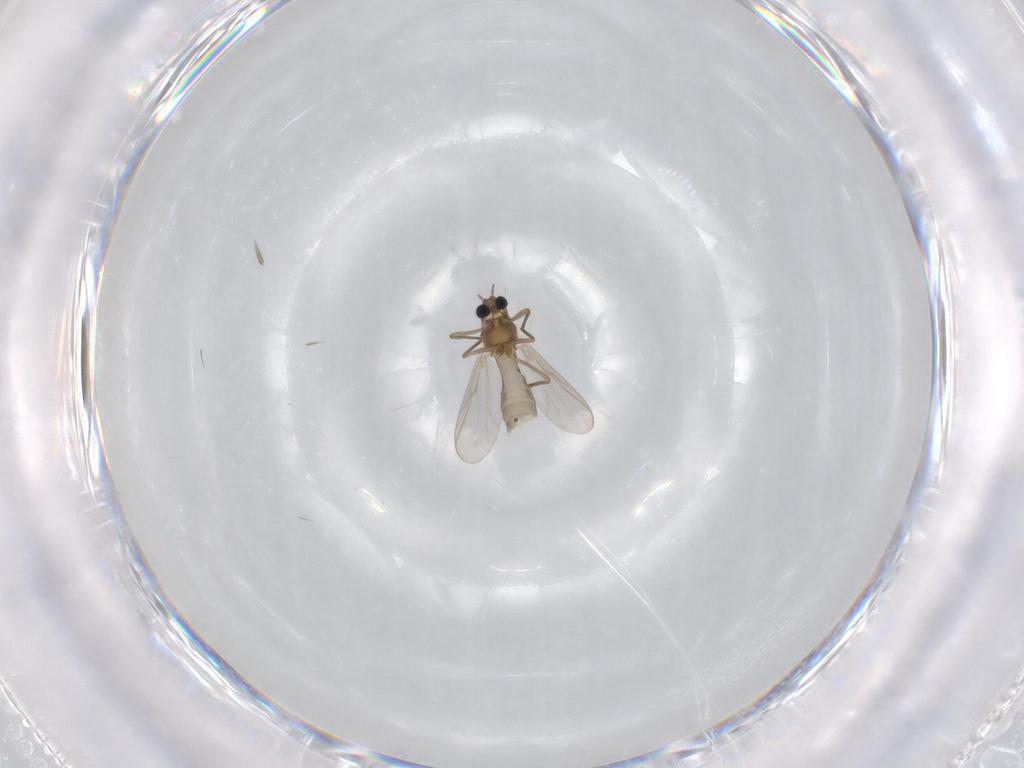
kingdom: Animalia
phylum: Arthropoda
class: Insecta
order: Diptera
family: Chironomidae
